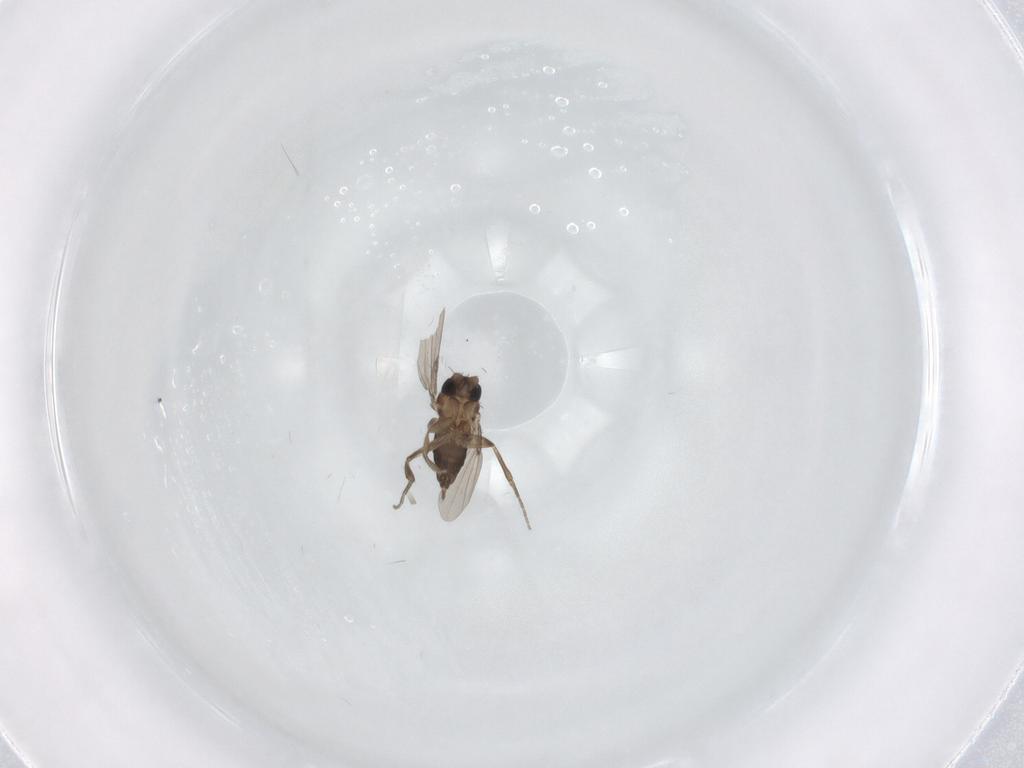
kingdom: Animalia
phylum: Arthropoda
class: Insecta
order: Diptera
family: Phoridae
